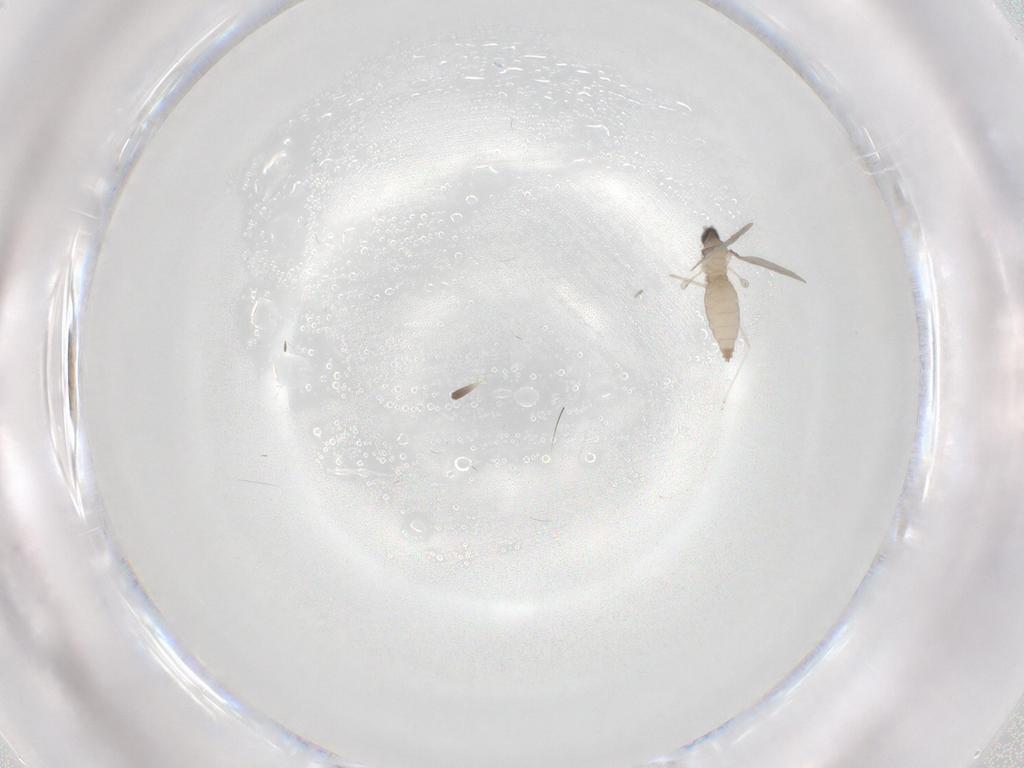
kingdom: Animalia
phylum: Arthropoda
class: Insecta
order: Diptera
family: Cecidomyiidae
